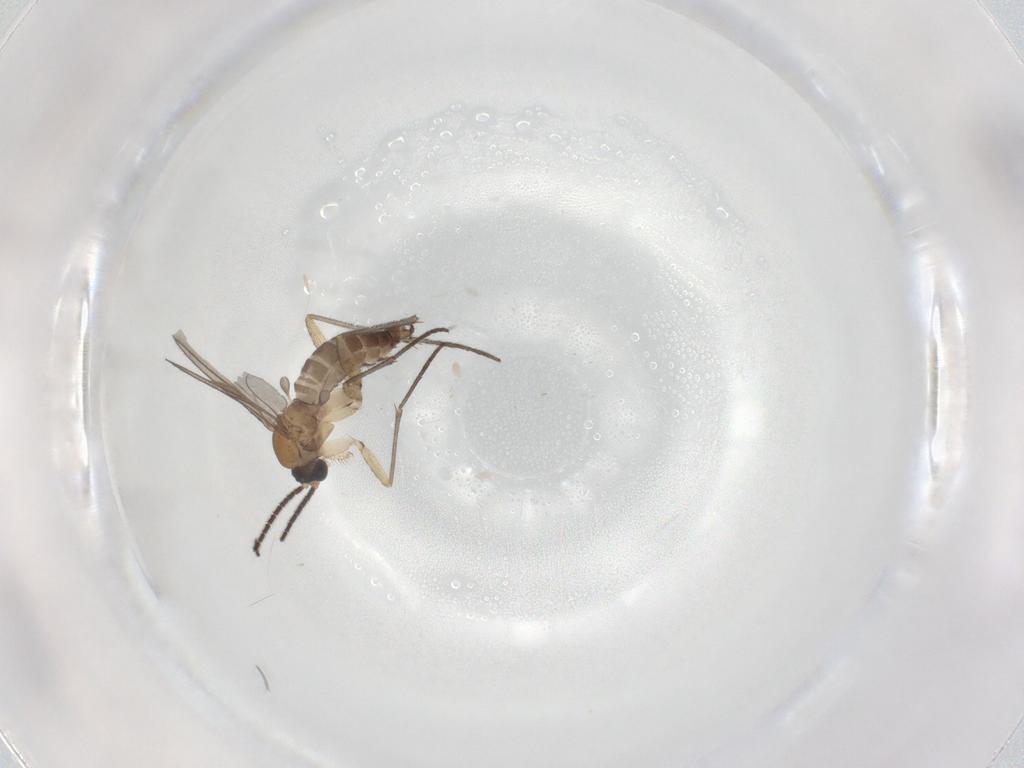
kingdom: Animalia
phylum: Arthropoda
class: Insecta
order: Diptera
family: Sciaridae
